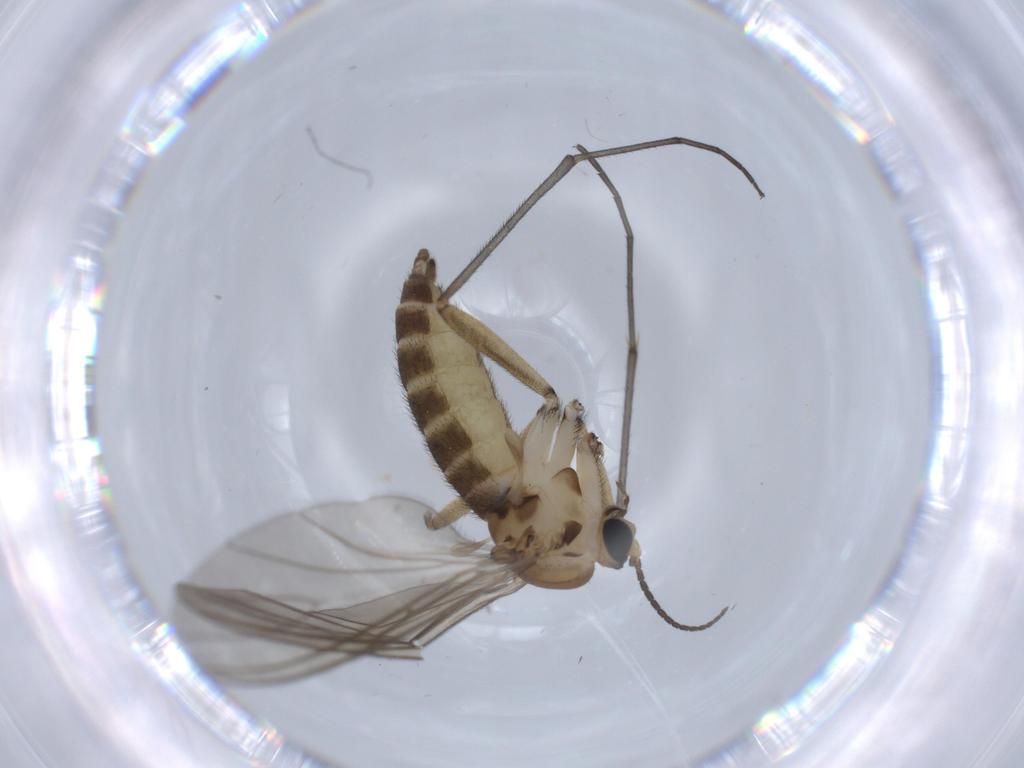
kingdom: Animalia
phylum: Arthropoda
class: Insecta
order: Diptera
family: Sciaridae
